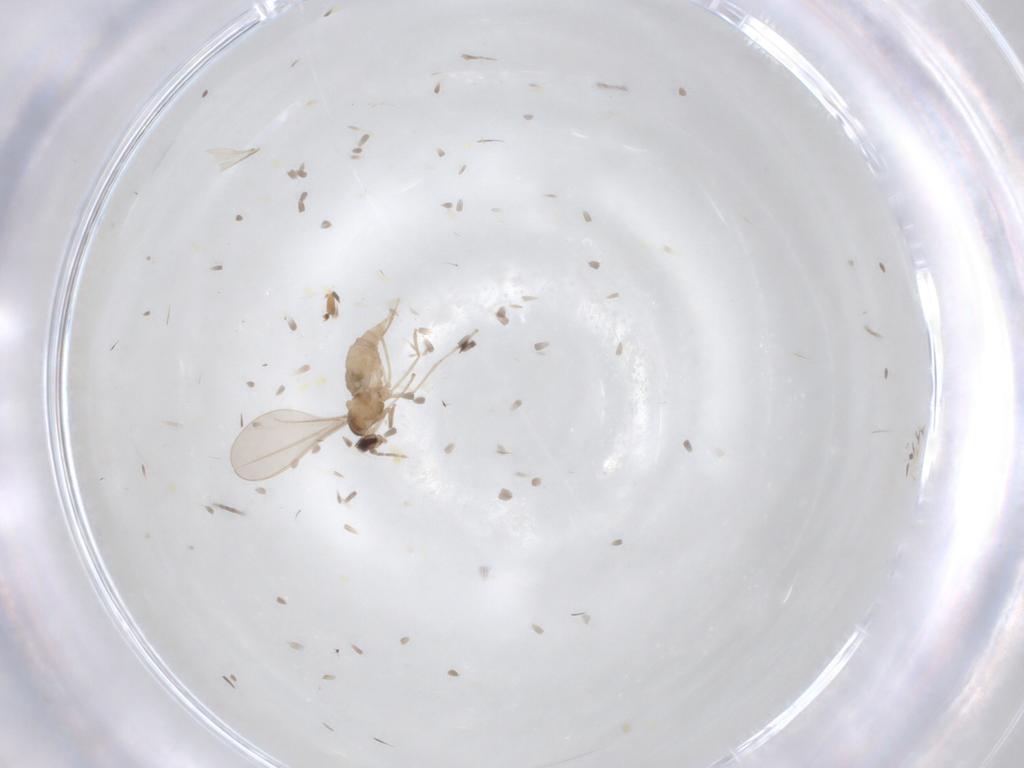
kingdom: Animalia
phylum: Arthropoda
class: Insecta
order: Diptera
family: Cecidomyiidae
